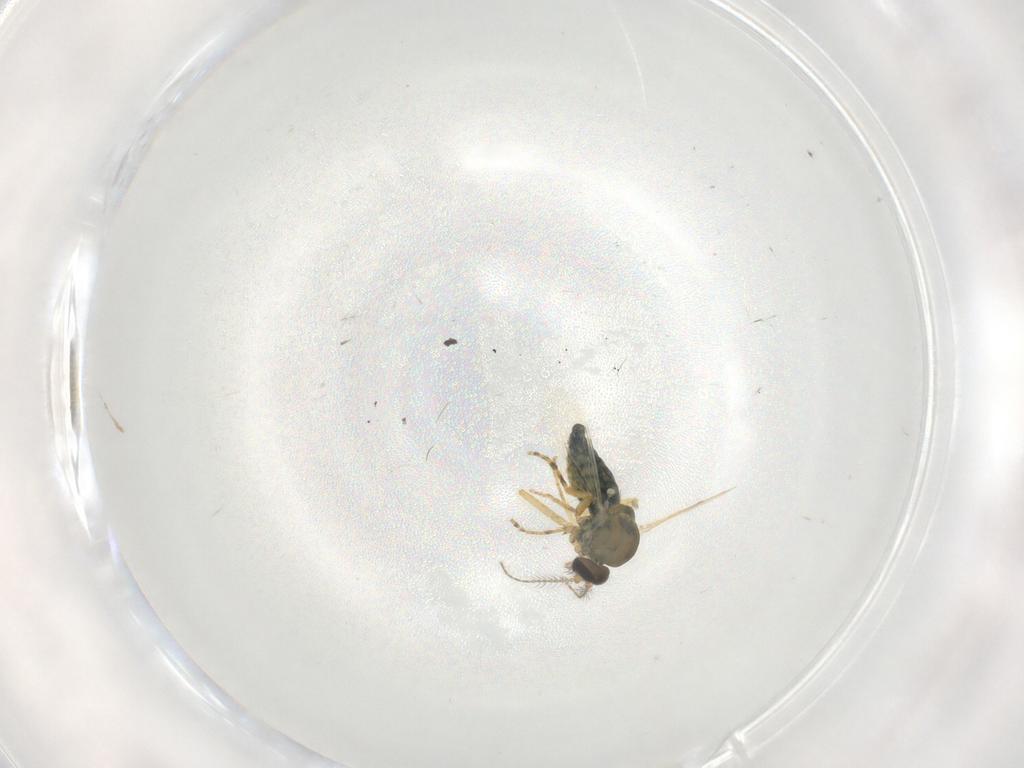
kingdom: Animalia
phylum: Arthropoda
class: Insecta
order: Diptera
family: Ceratopogonidae
